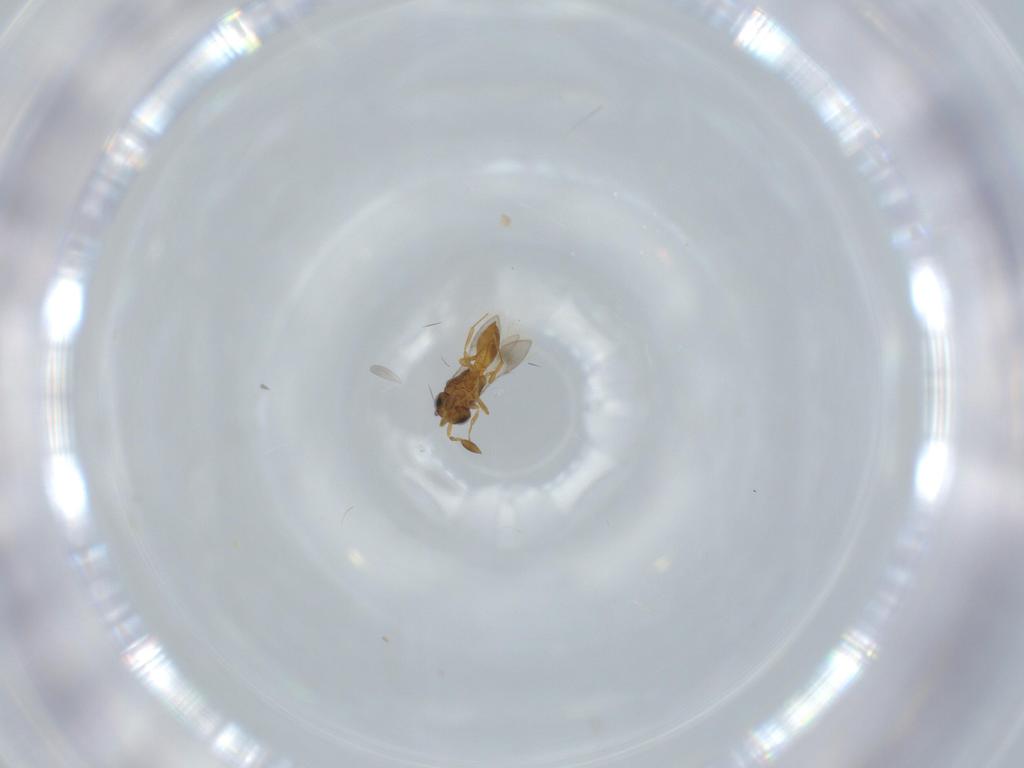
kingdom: Animalia
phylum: Arthropoda
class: Insecta
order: Hymenoptera
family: Scelionidae
